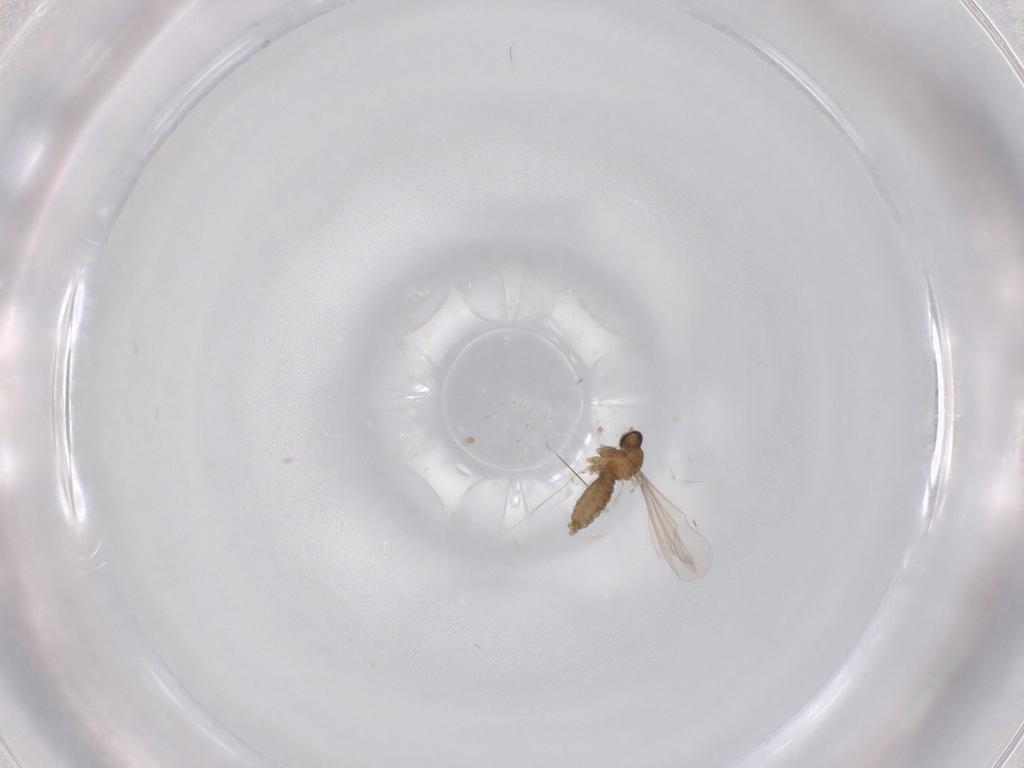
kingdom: Animalia
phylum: Arthropoda
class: Insecta
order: Diptera
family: Cecidomyiidae
